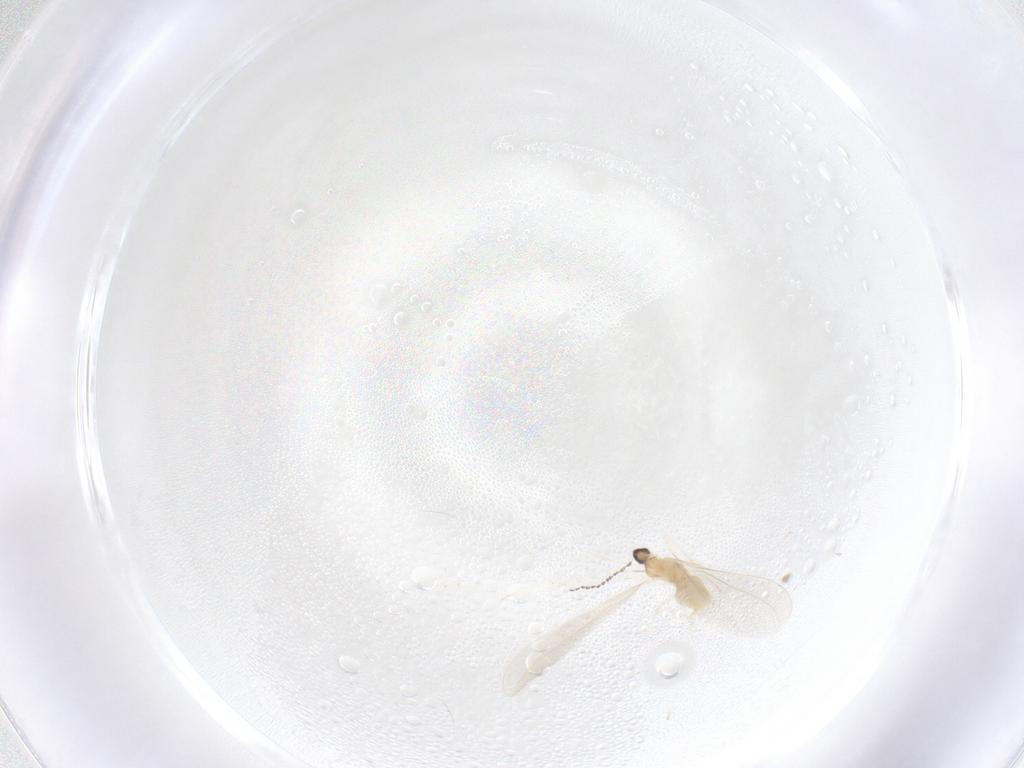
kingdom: Animalia
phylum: Arthropoda
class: Insecta
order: Diptera
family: Cecidomyiidae
